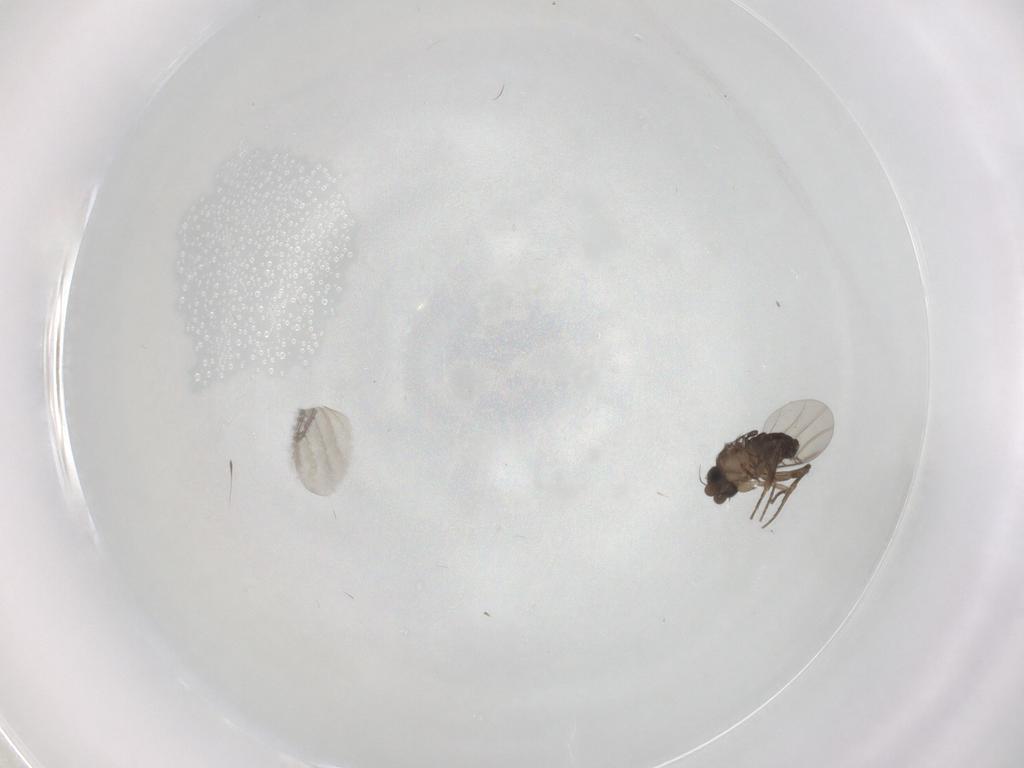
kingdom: Animalia
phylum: Arthropoda
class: Insecta
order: Diptera
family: Phoridae
